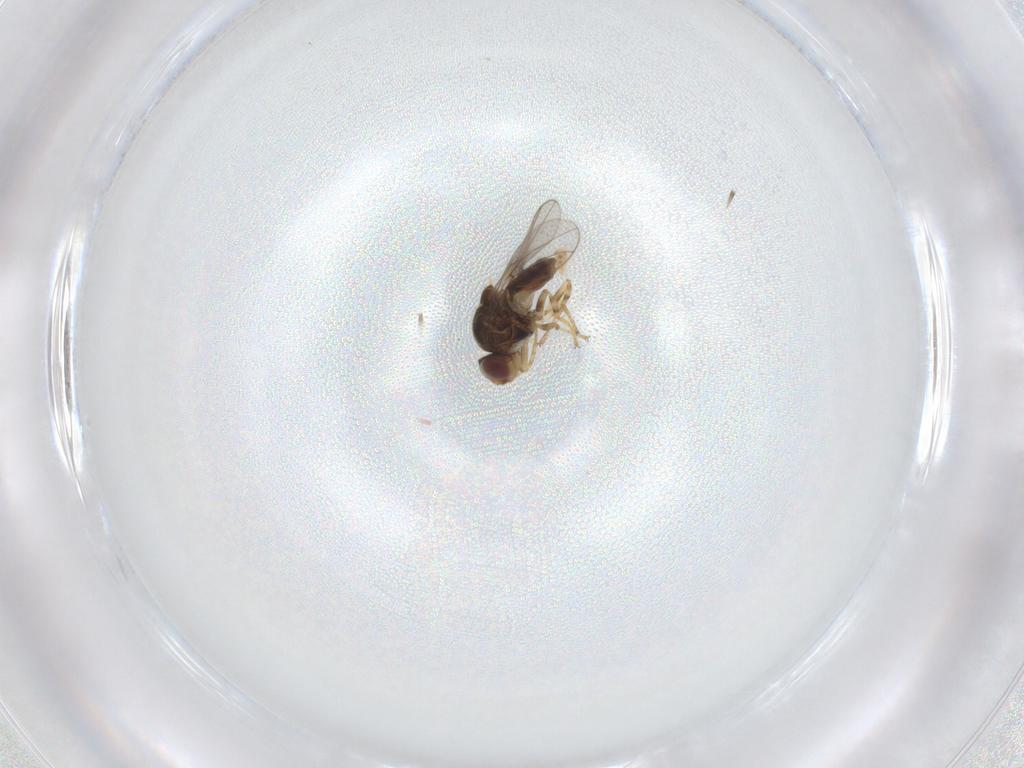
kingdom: Animalia
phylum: Arthropoda
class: Insecta
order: Diptera
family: Chloropidae
